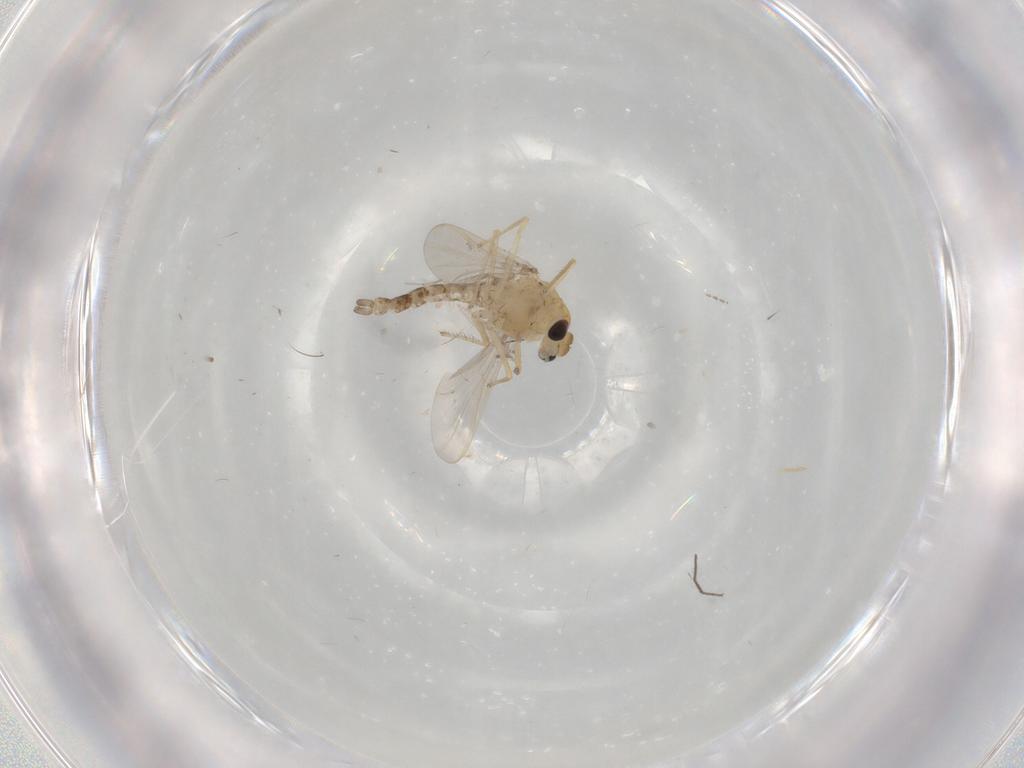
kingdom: Animalia
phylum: Arthropoda
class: Insecta
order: Diptera
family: Chironomidae
